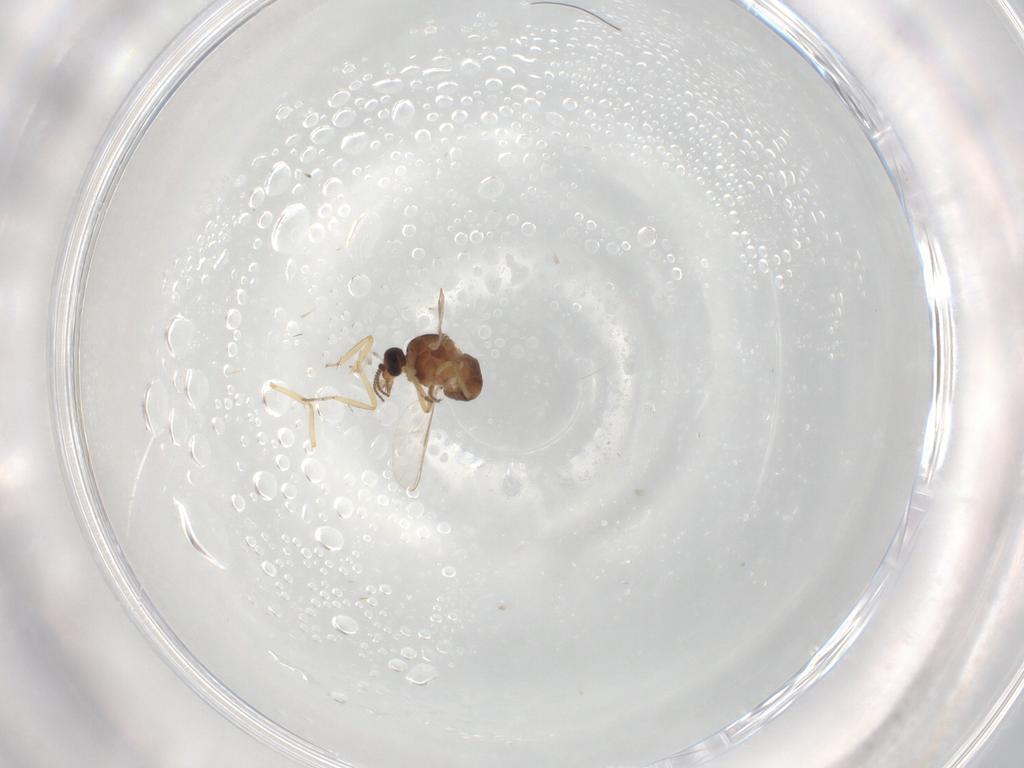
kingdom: Animalia
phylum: Arthropoda
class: Insecta
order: Diptera
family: Ceratopogonidae
